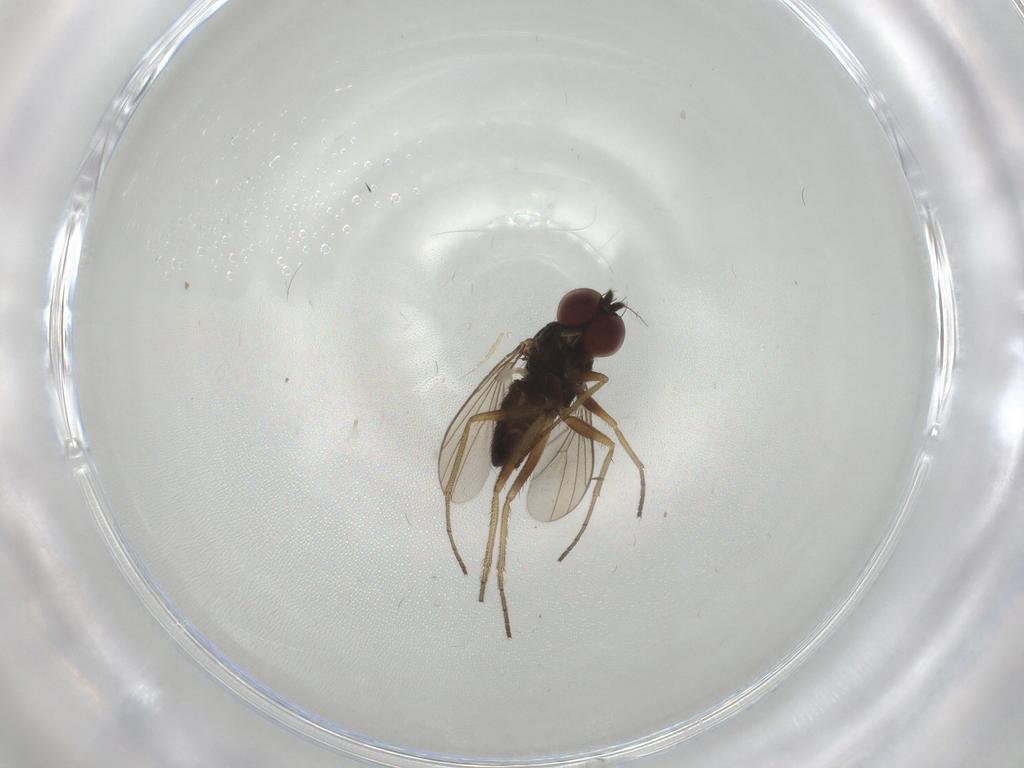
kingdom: Animalia
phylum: Arthropoda
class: Insecta
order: Diptera
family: Dolichopodidae
